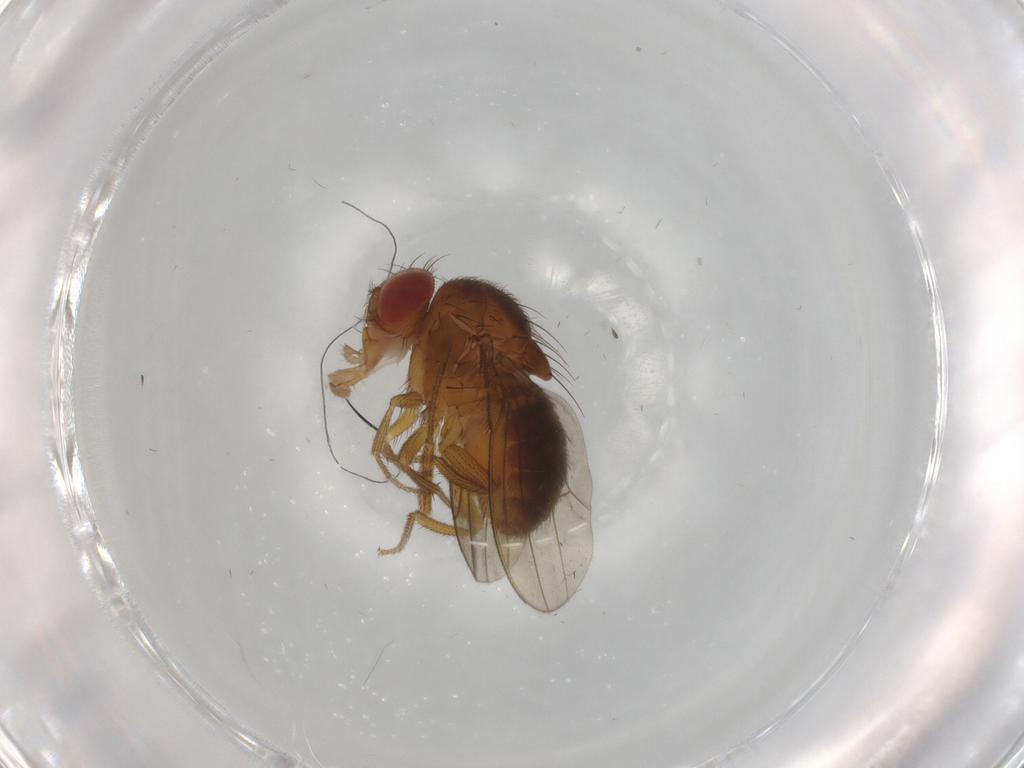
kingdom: Animalia
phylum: Arthropoda
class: Insecta
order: Diptera
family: Drosophilidae
